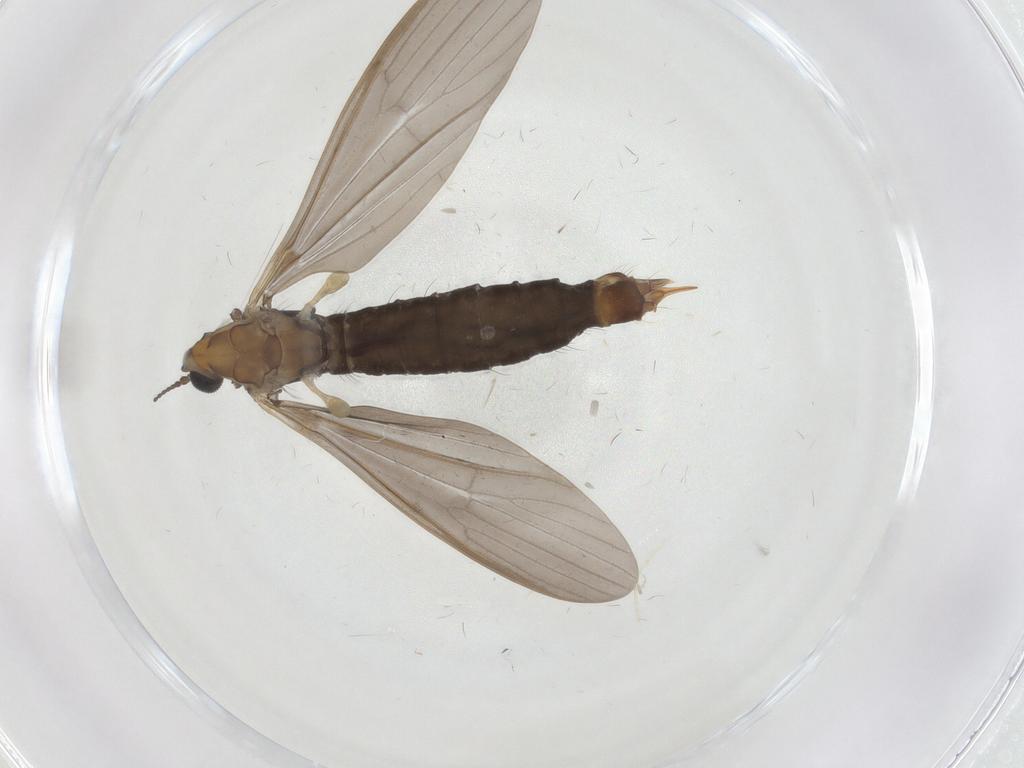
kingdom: Animalia
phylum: Arthropoda
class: Insecta
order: Diptera
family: Limoniidae
